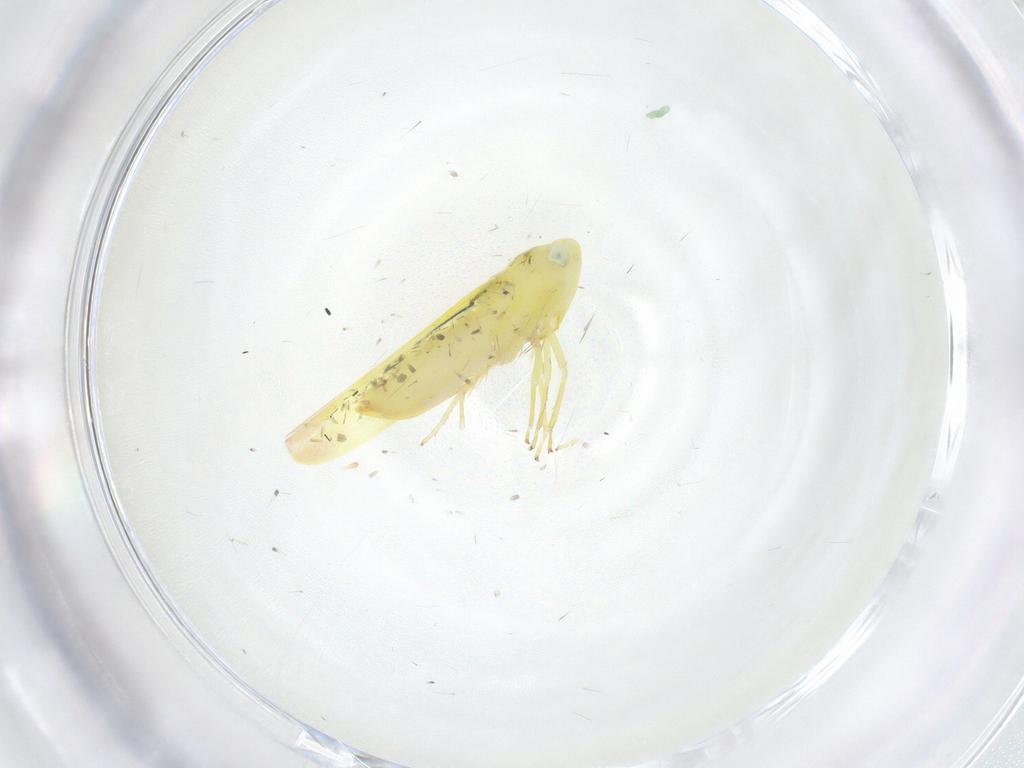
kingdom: Animalia
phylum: Arthropoda
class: Insecta
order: Hemiptera
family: Cicadellidae
